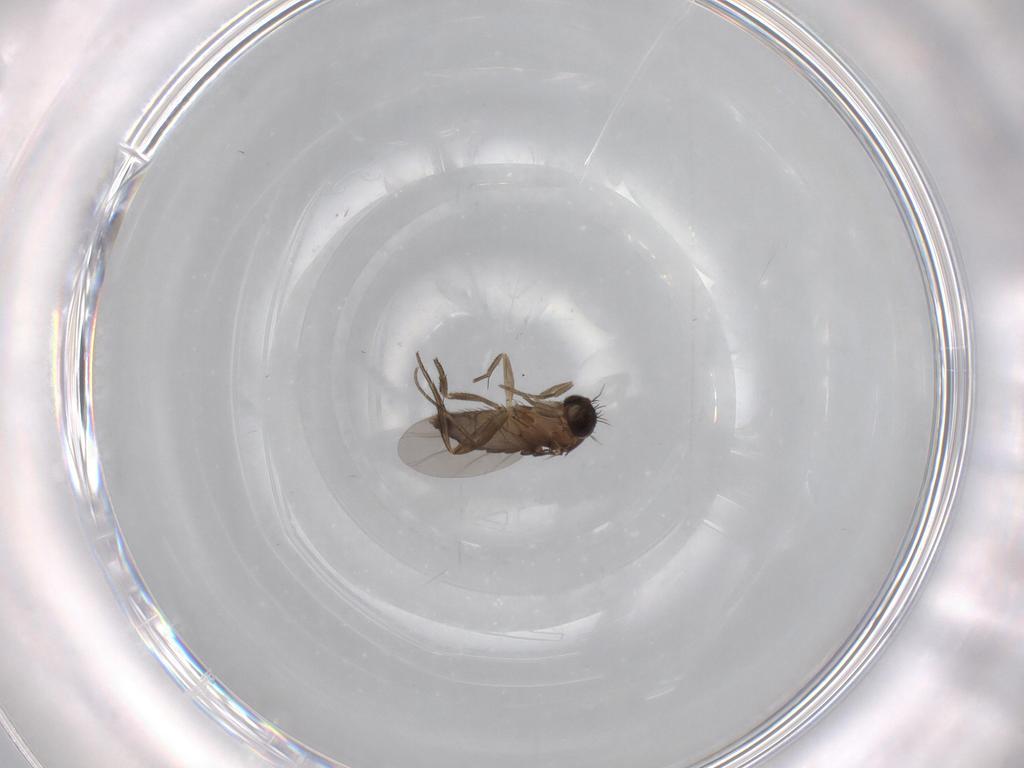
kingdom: Animalia
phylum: Arthropoda
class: Insecta
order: Diptera
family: Phoridae
